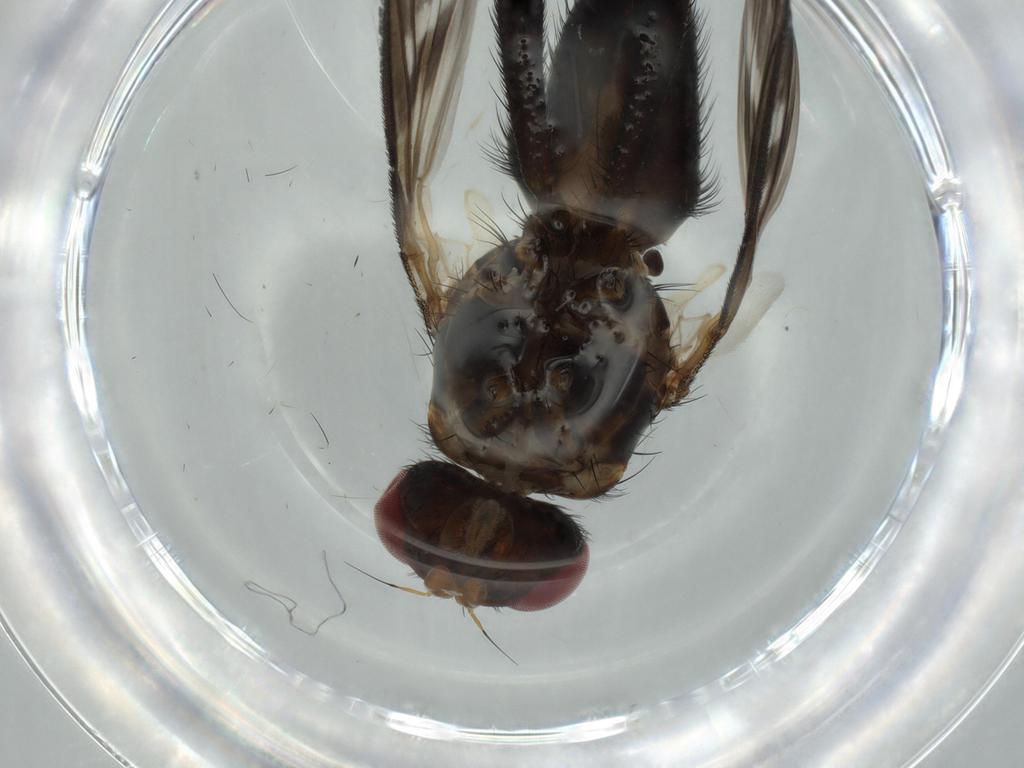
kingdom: Animalia
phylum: Arthropoda
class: Insecta
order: Diptera
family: Calliphoridae
